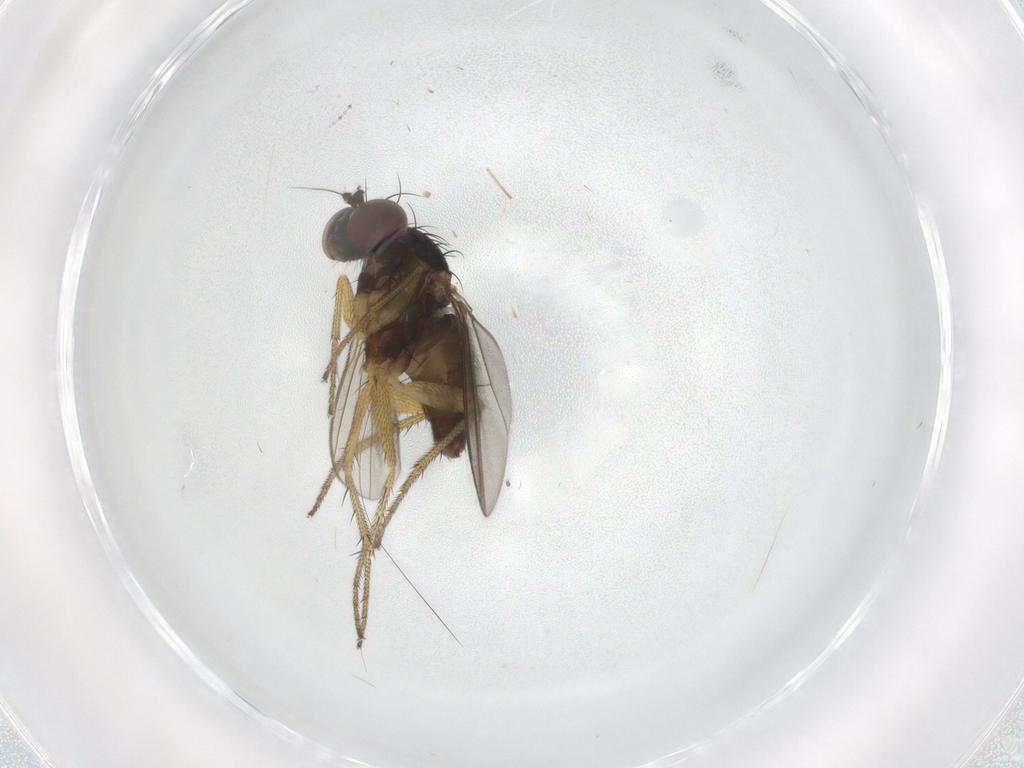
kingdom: Animalia
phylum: Arthropoda
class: Insecta
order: Diptera
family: Cecidomyiidae
